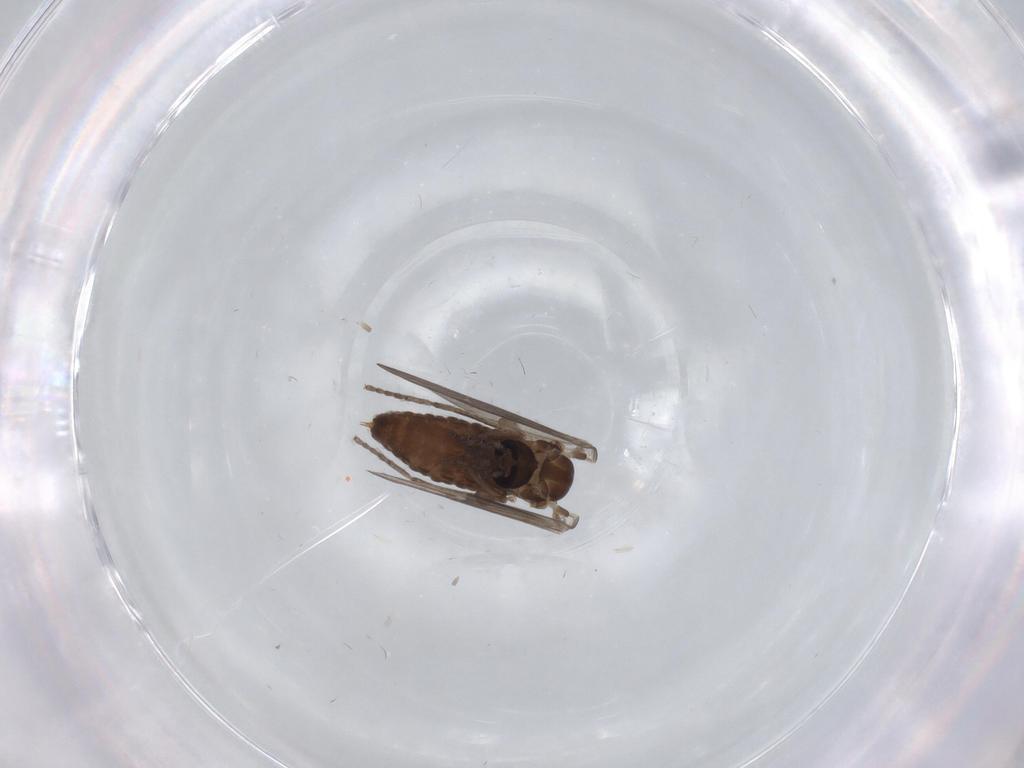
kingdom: Animalia
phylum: Arthropoda
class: Insecta
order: Diptera
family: Psychodidae
